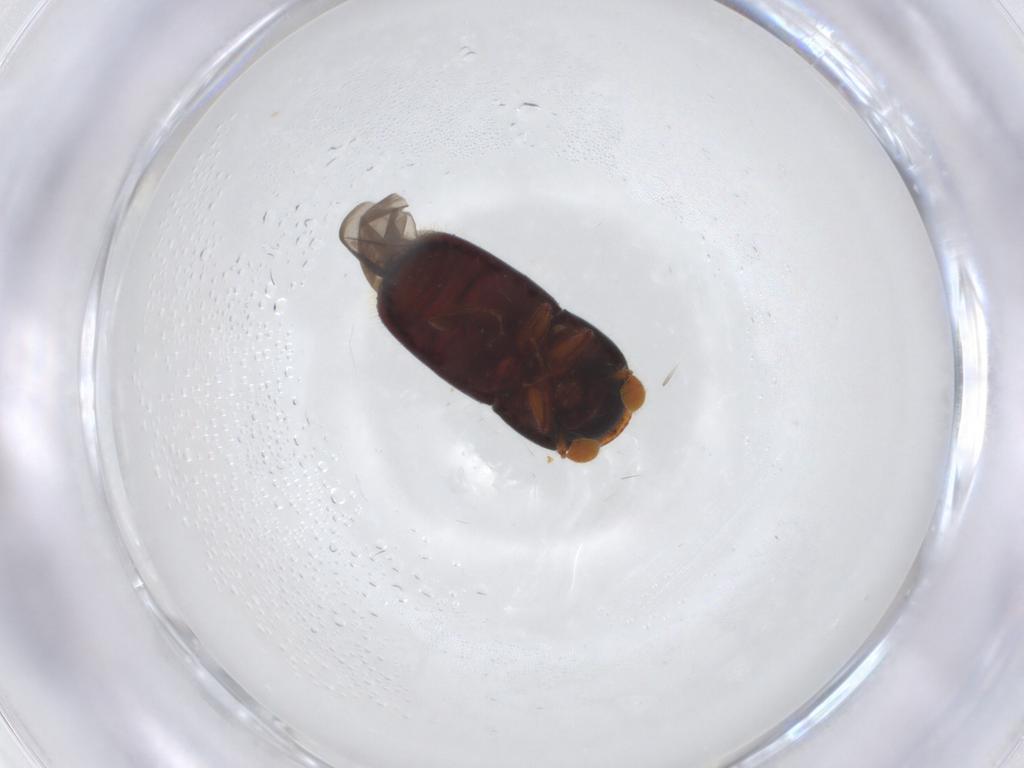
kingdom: Animalia
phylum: Arthropoda
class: Insecta
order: Coleoptera
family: Curculionidae
